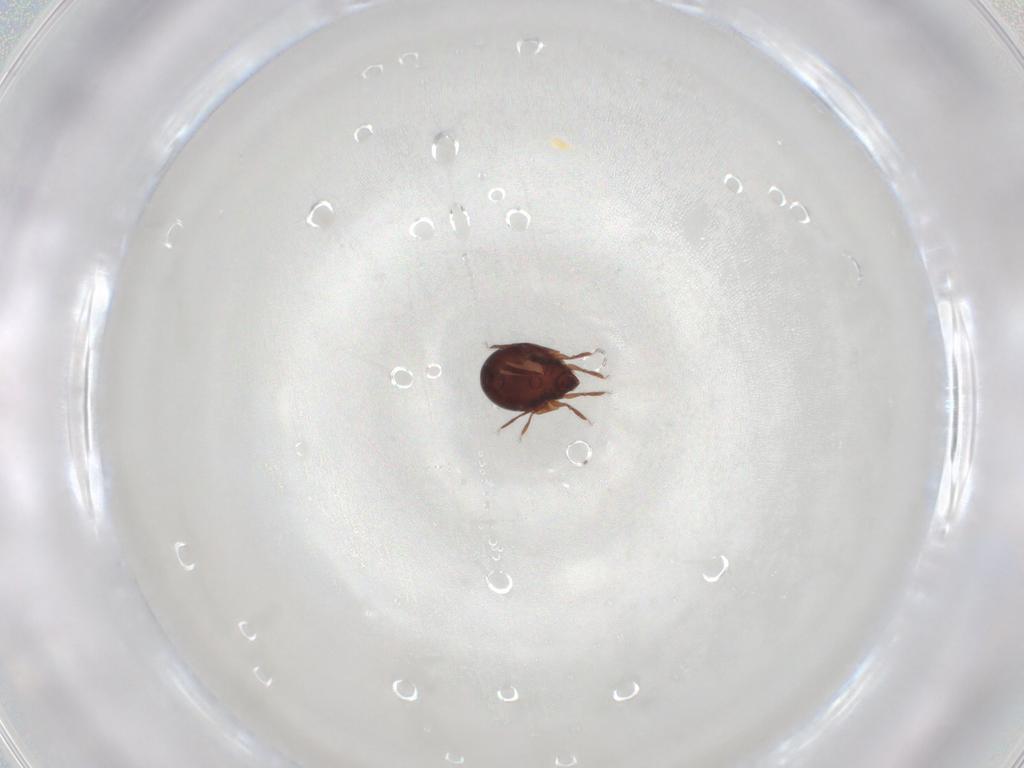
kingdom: Animalia
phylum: Arthropoda
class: Arachnida
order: Sarcoptiformes
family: Humerobatidae
